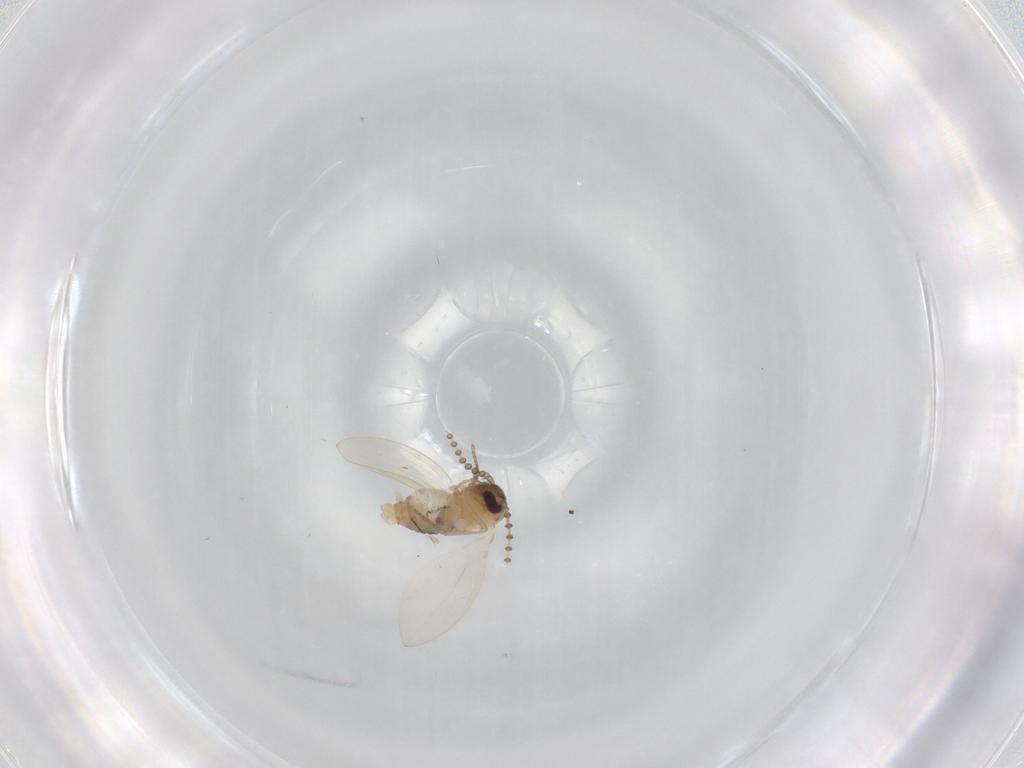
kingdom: Animalia
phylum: Arthropoda
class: Insecta
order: Diptera
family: Psychodidae
